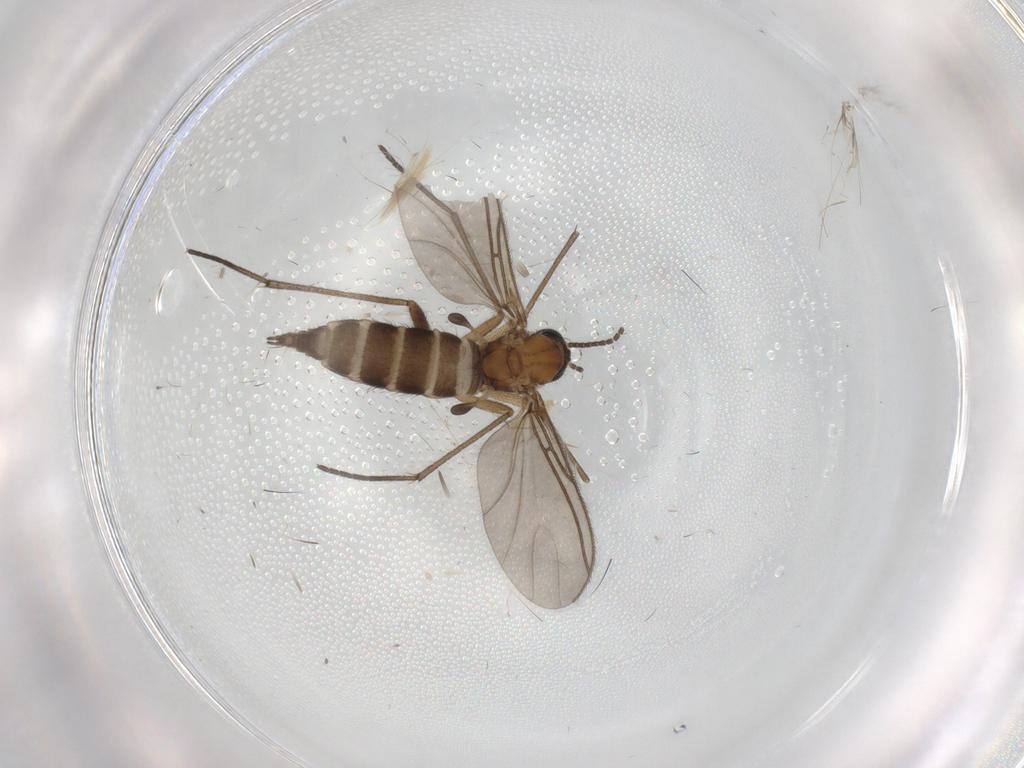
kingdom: Animalia
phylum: Arthropoda
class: Insecta
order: Diptera
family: Sciaridae
